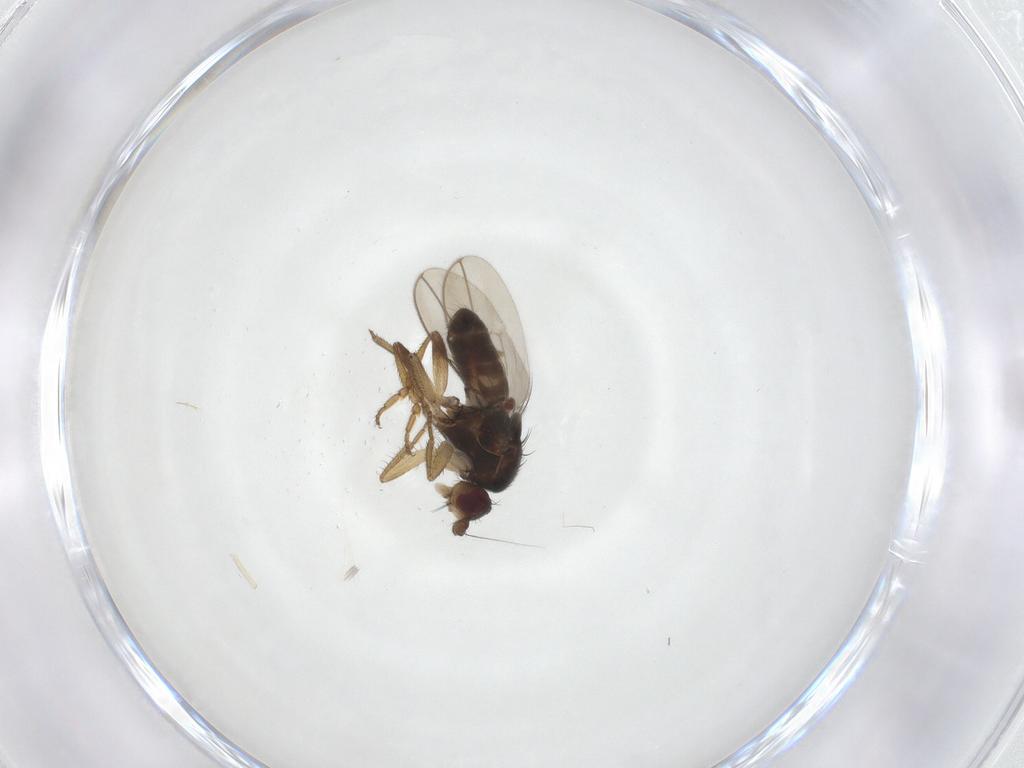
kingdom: Animalia
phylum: Arthropoda
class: Insecta
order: Diptera
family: Sphaeroceridae
